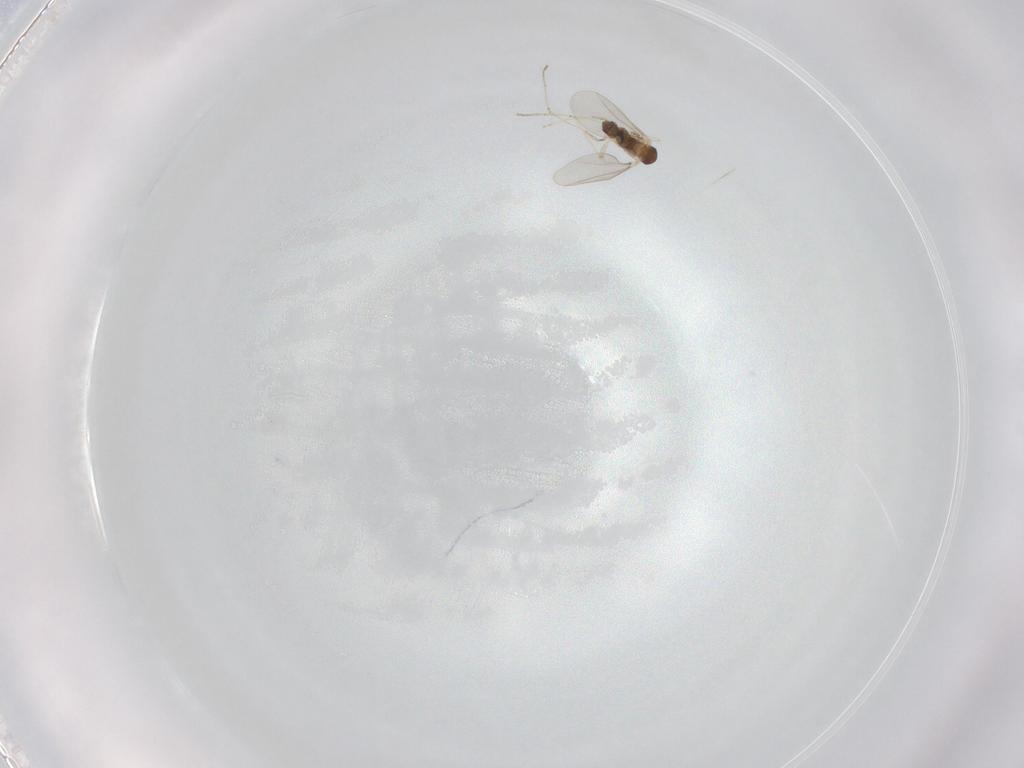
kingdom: Animalia
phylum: Arthropoda
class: Insecta
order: Diptera
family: Cecidomyiidae
